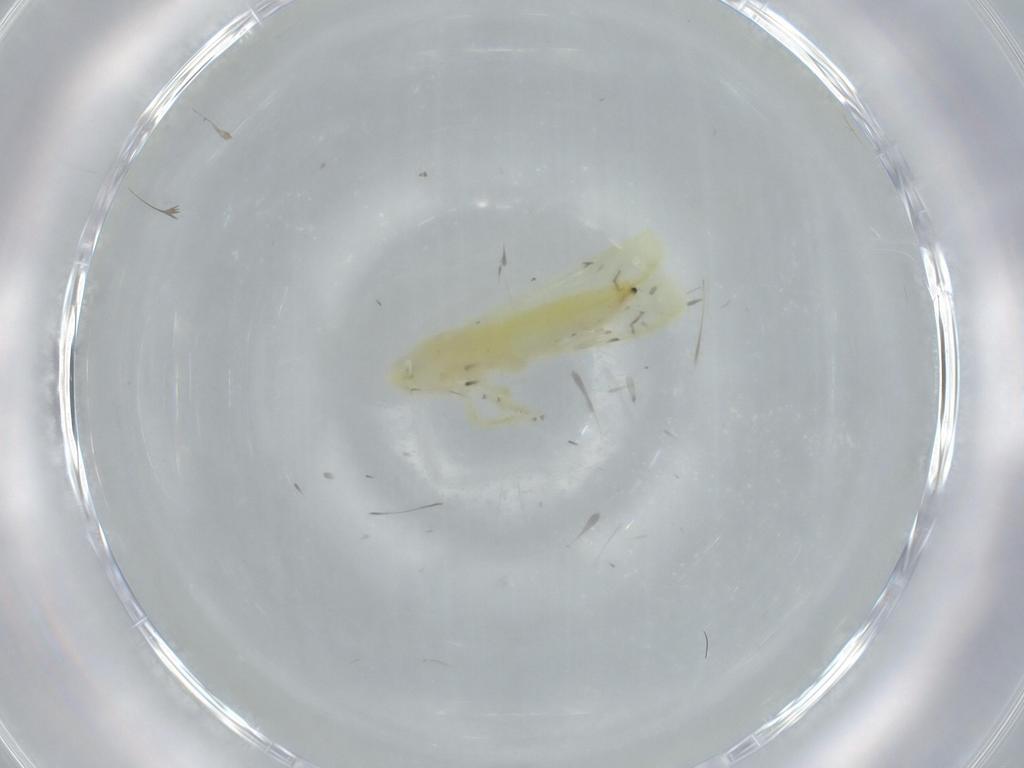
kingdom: Animalia
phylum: Arthropoda
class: Insecta
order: Hemiptera
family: Cicadellidae
